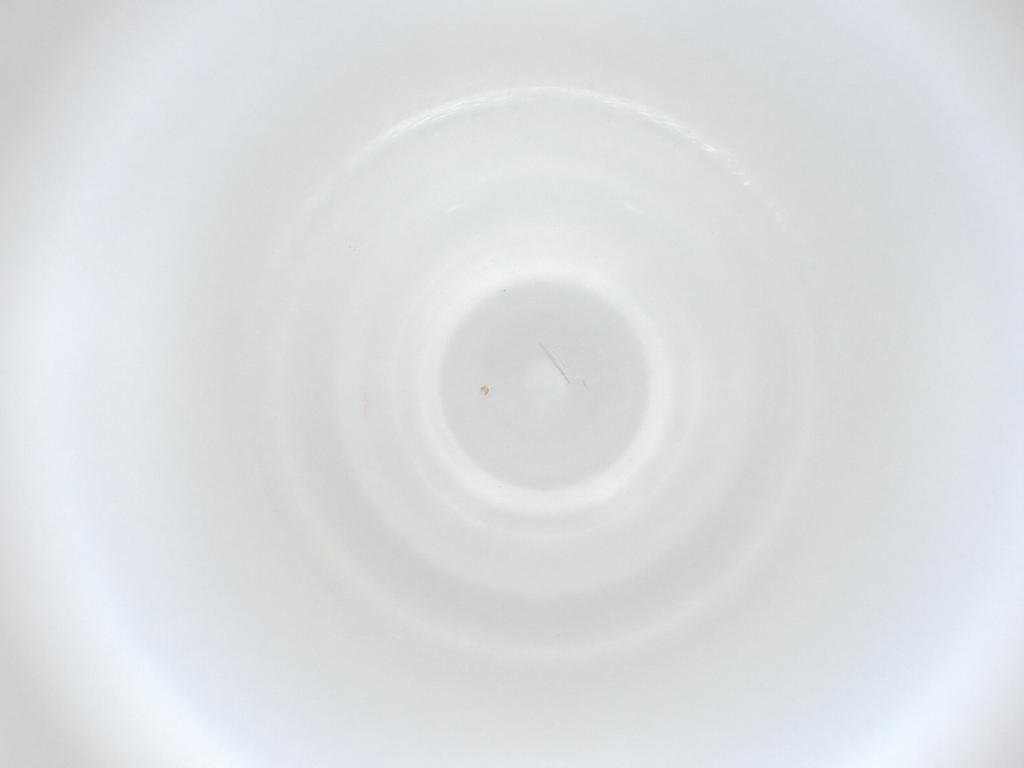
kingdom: Animalia
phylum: Arthropoda
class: Insecta
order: Diptera
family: Cecidomyiidae
